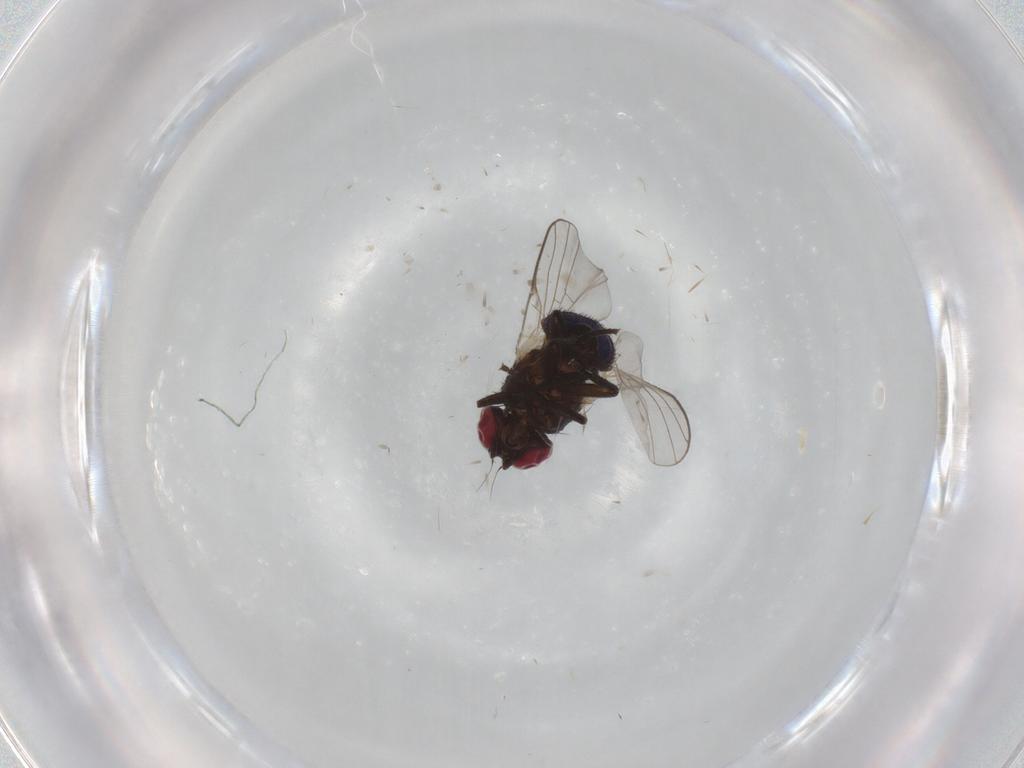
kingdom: Animalia
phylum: Arthropoda
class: Insecta
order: Diptera
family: Agromyzidae
